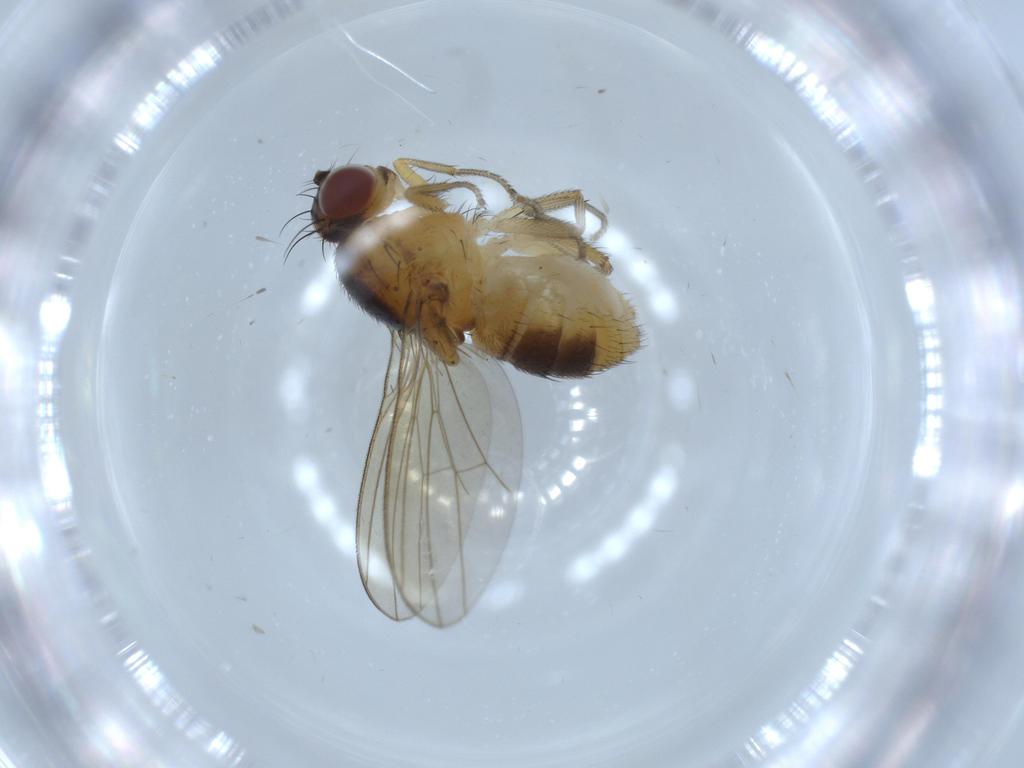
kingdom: Animalia
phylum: Arthropoda
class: Insecta
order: Diptera
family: Lauxaniidae
